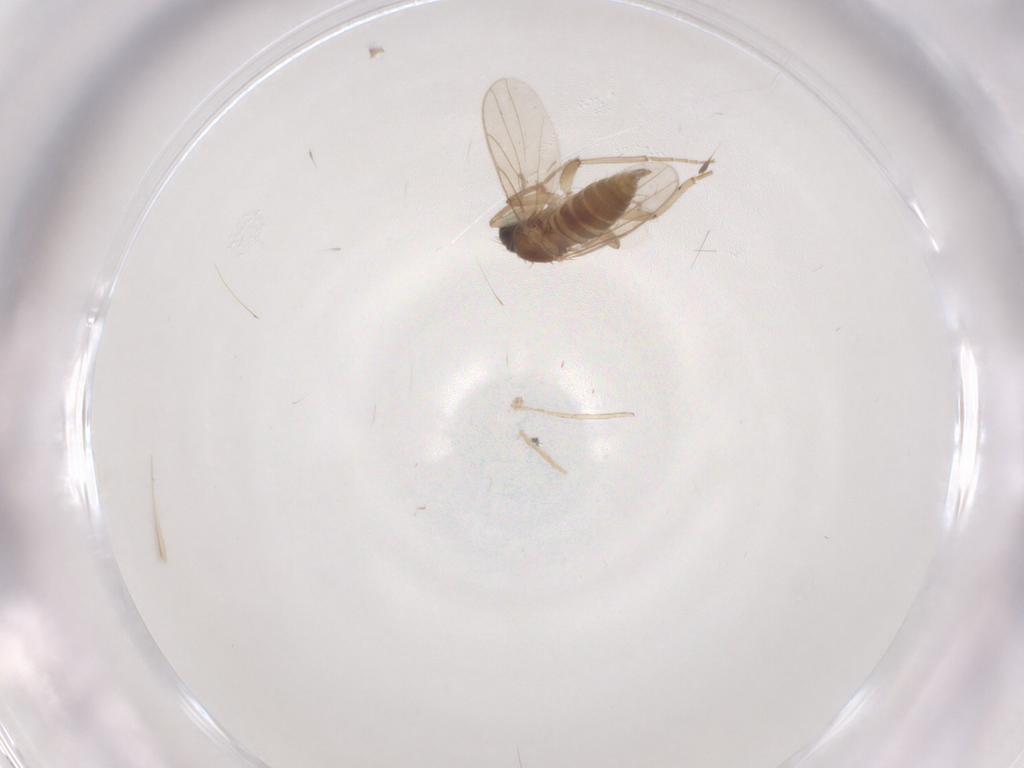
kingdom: Animalia
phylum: Arthropoda
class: Insecta
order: Diptera
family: Hybotidae
